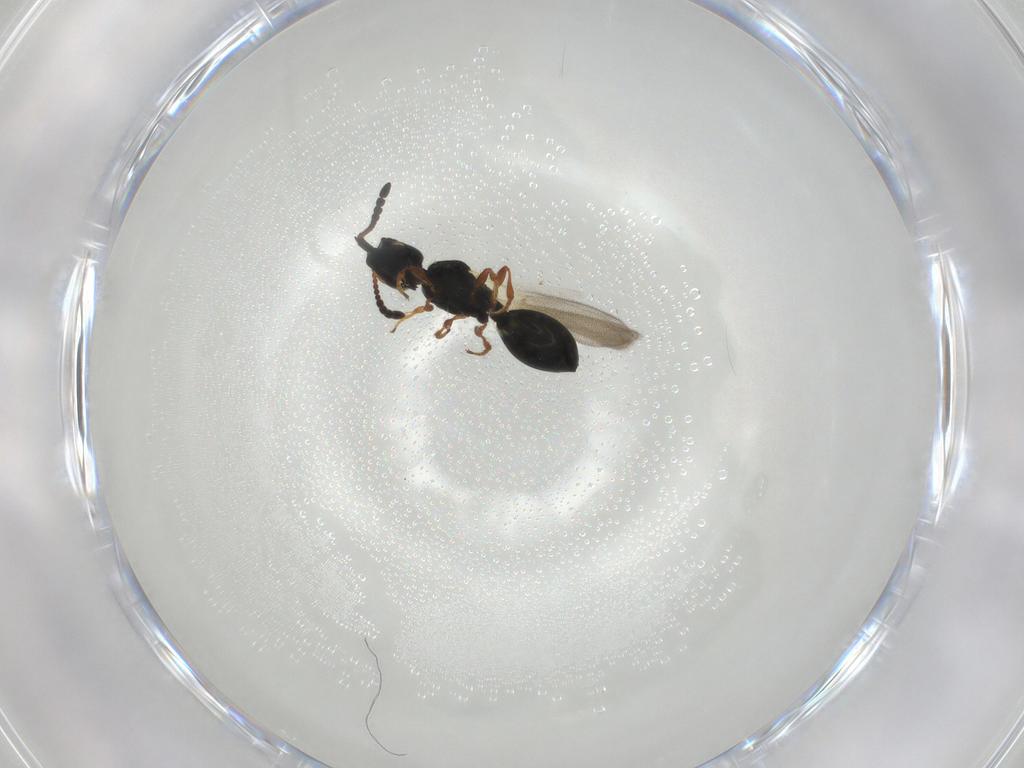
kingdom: Animalia
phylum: Arthropoda
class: Insecta
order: Hymenoptera
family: Diapriidae
